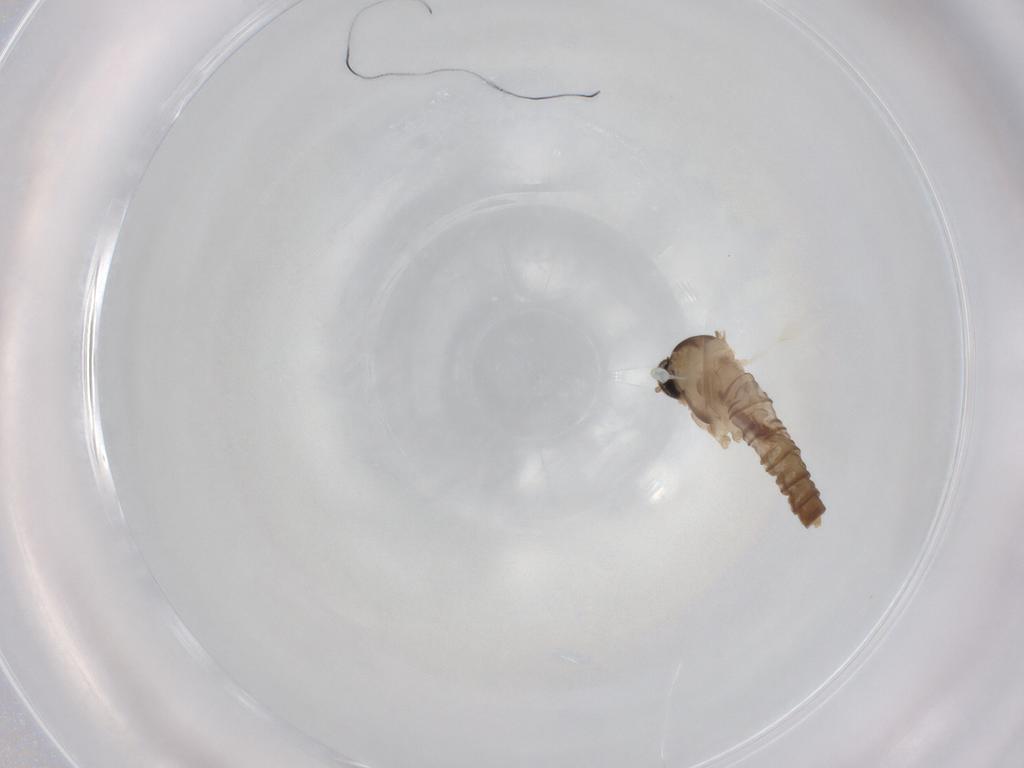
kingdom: Animalia
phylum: Arthropoda
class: Insecta
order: Diptera
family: Cecidomyiidae
